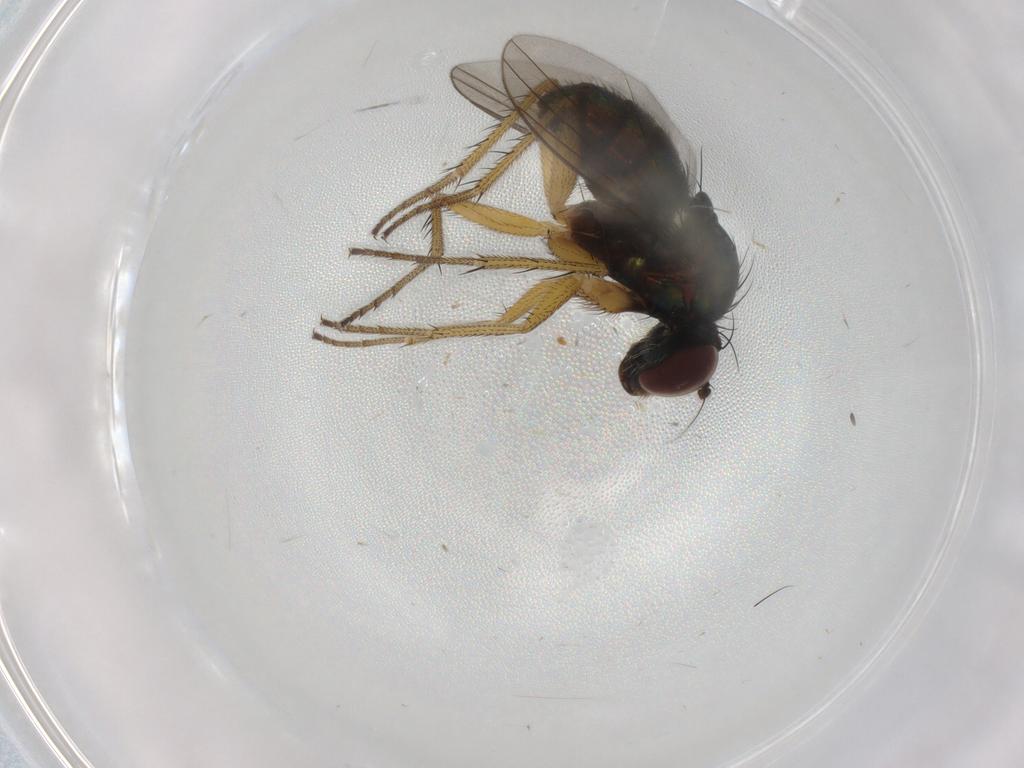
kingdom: Animalia
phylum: Arthropoda
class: Insecta
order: Diptera
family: Dolichopodidae
